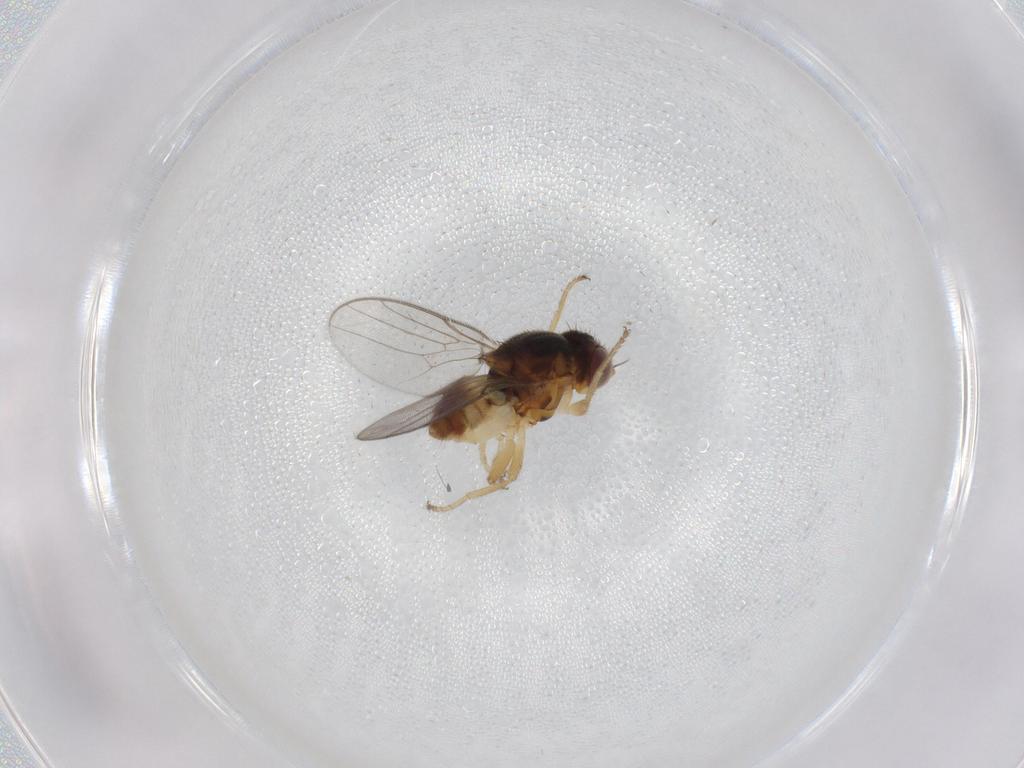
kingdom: Animalia
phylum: Arthropoda
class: Insecta
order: Diptera
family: Chloropidae
